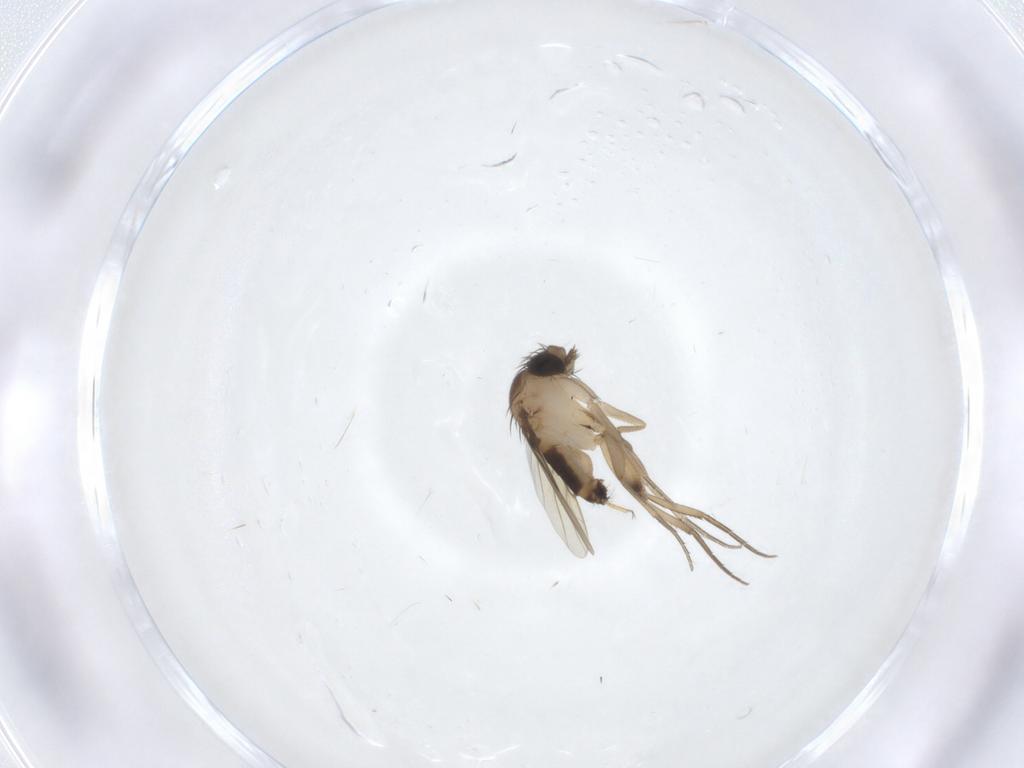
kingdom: Animalia
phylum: Arthropoda
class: Insecta
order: Diptera
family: Phoridae
